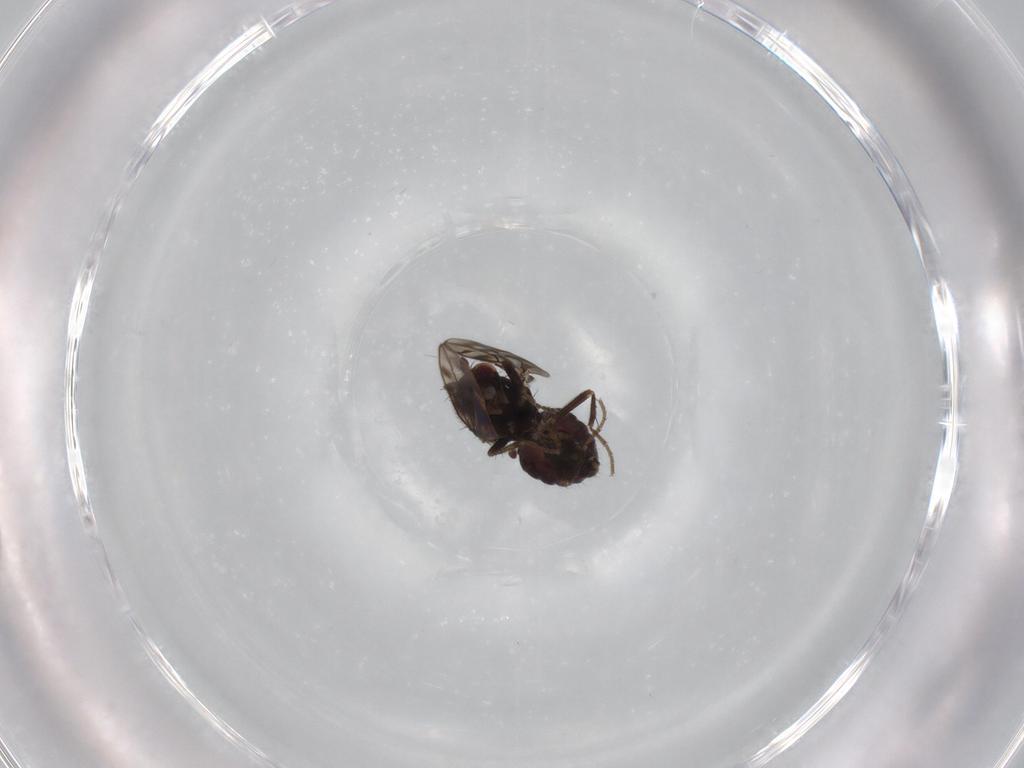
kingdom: Animalia
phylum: Arthropoda
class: Insecta
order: Diptera
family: Sphaeroceridae
